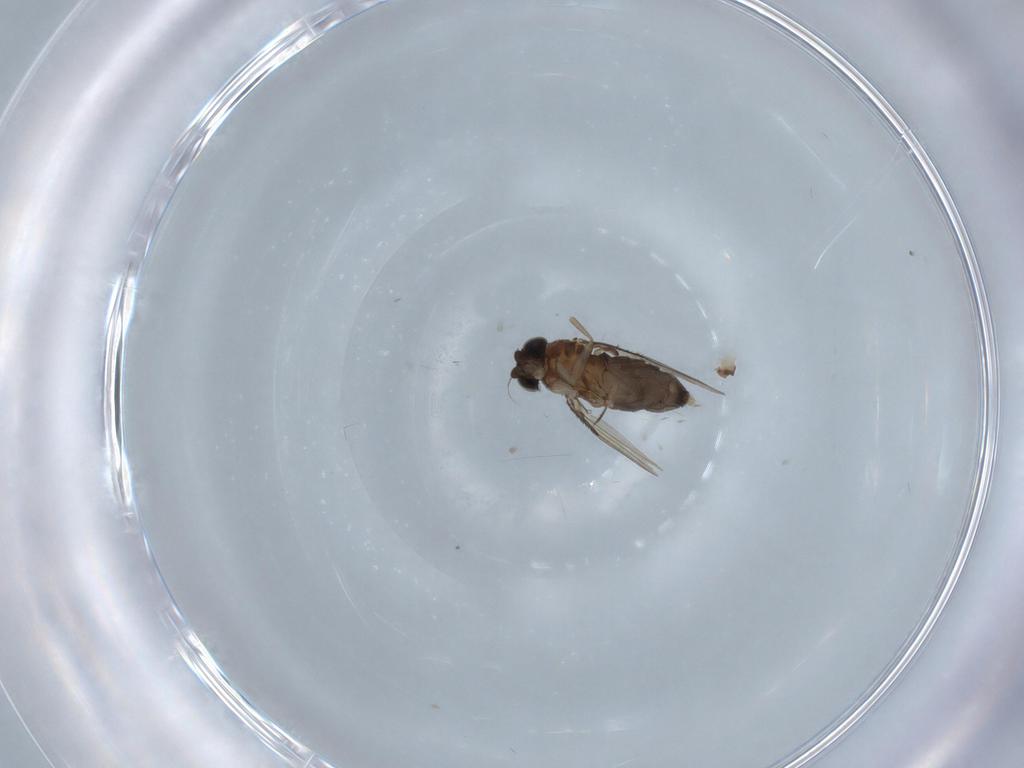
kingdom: Animalia
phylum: Arthropoda
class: Insecta
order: Diptera
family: Phoridae
